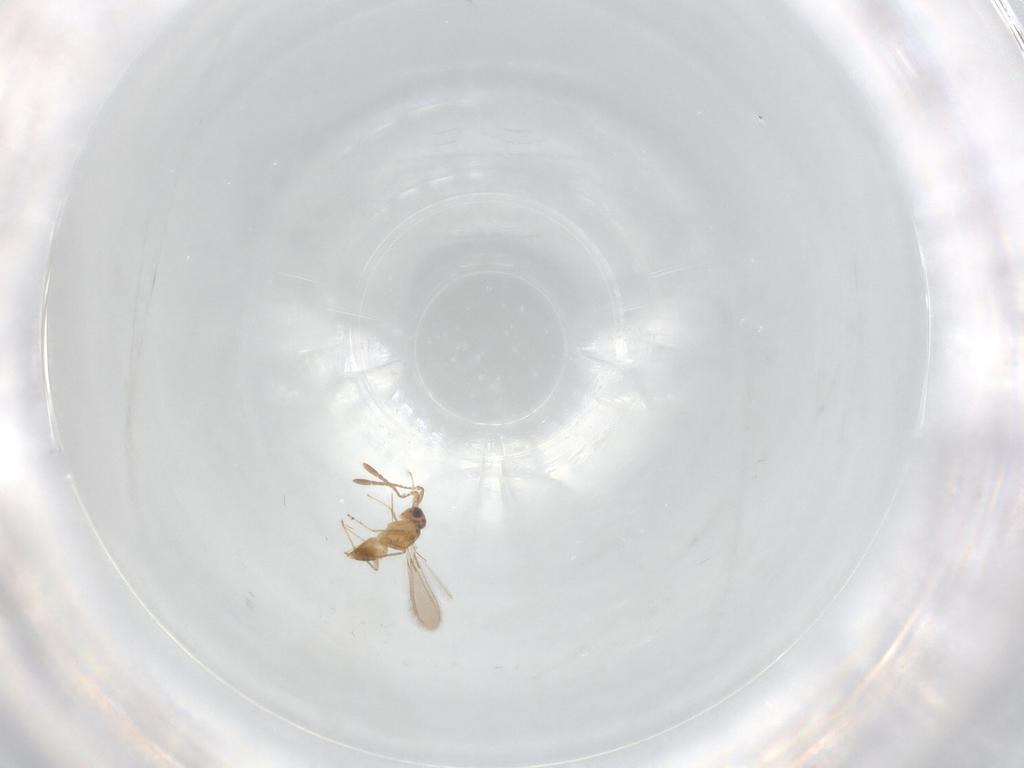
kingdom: Animalia
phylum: Arthropoda
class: Insecta
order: Hymenoptera
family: Mymaridae
